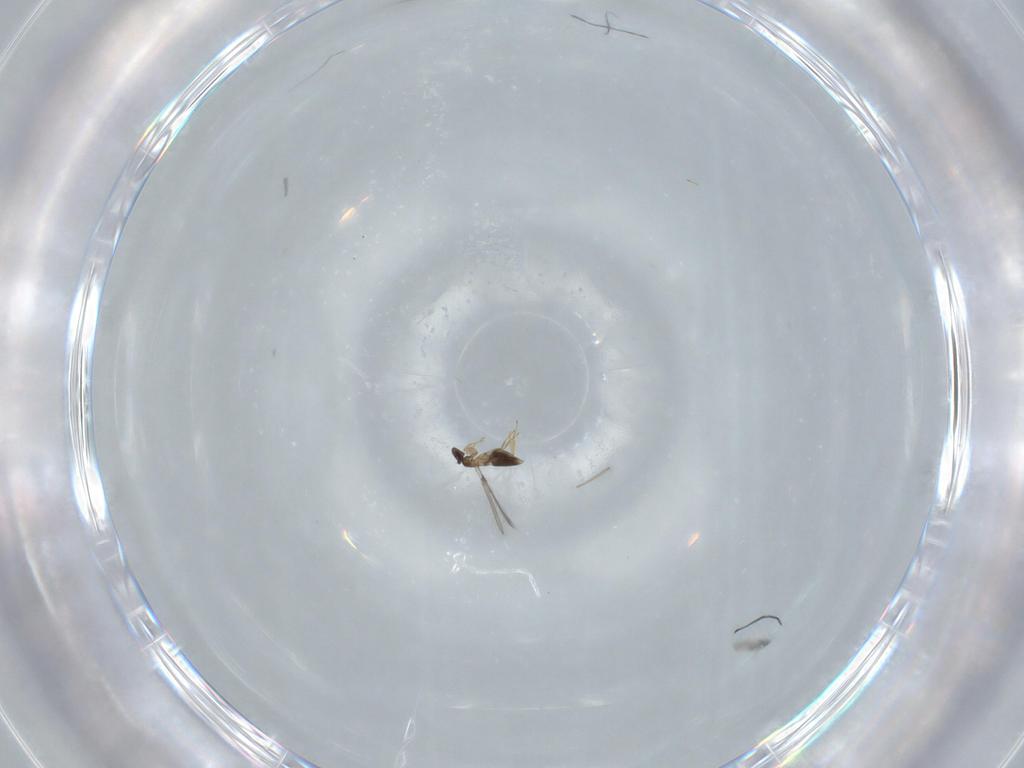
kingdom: Animalia
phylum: Arthropoda
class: Insecta
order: Hymenoptera
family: Mymaridae
